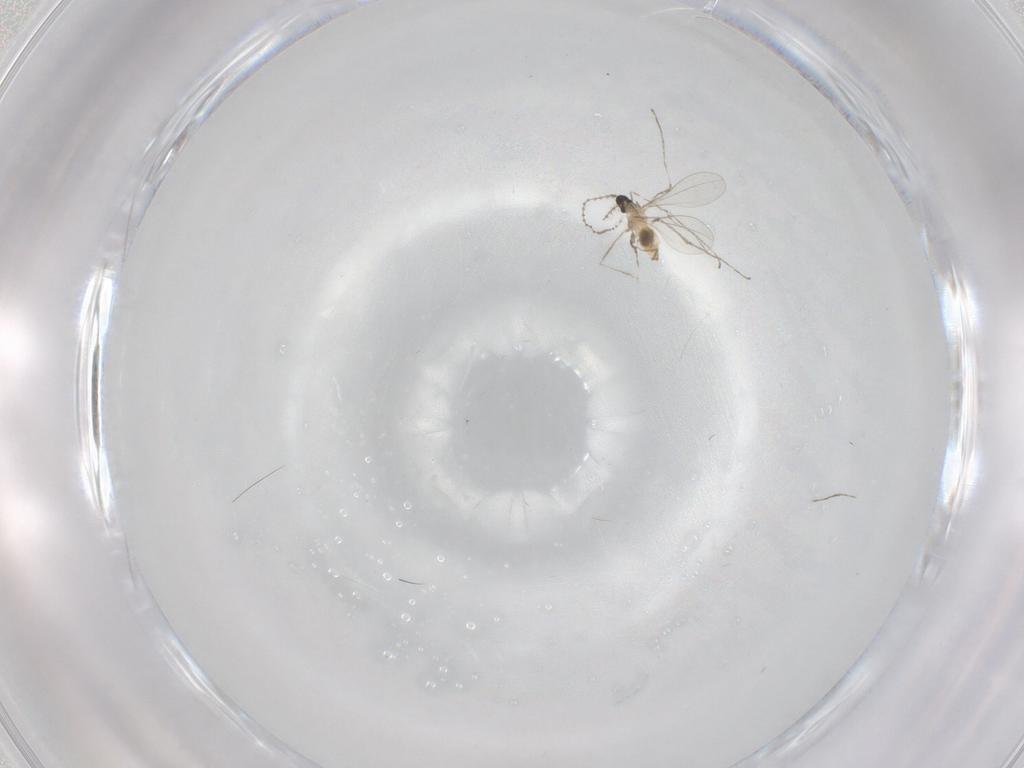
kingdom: Animalia
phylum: Arthropoda
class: Insecta
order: Diptera
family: Cecidomyiidae
